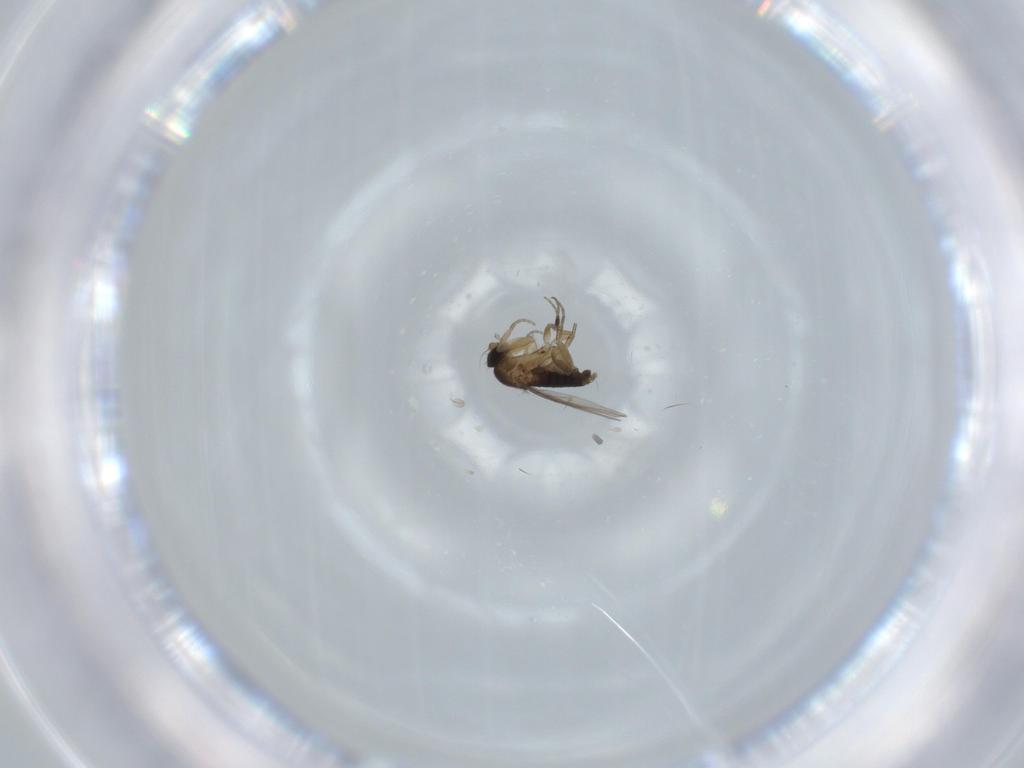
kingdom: Animalia
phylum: Arthropoda
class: Insecta
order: Diptera
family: Phoridae
